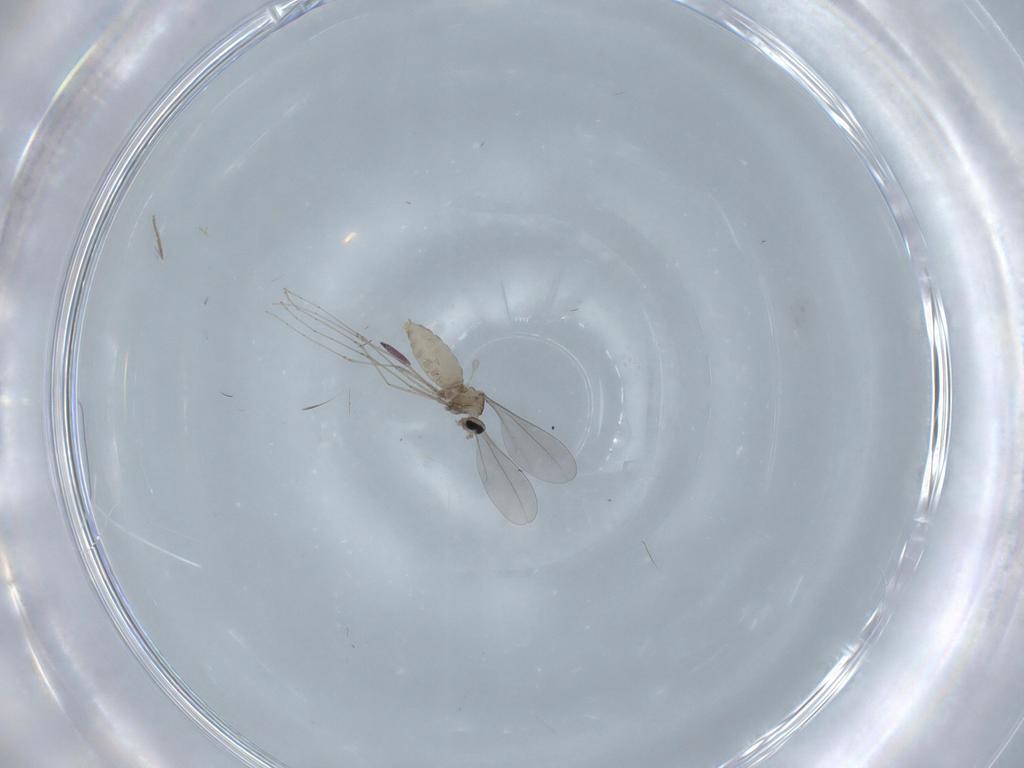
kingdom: Animalia
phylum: Arthropoda
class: Insecta
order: Diptera
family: Cecidomyiidae
